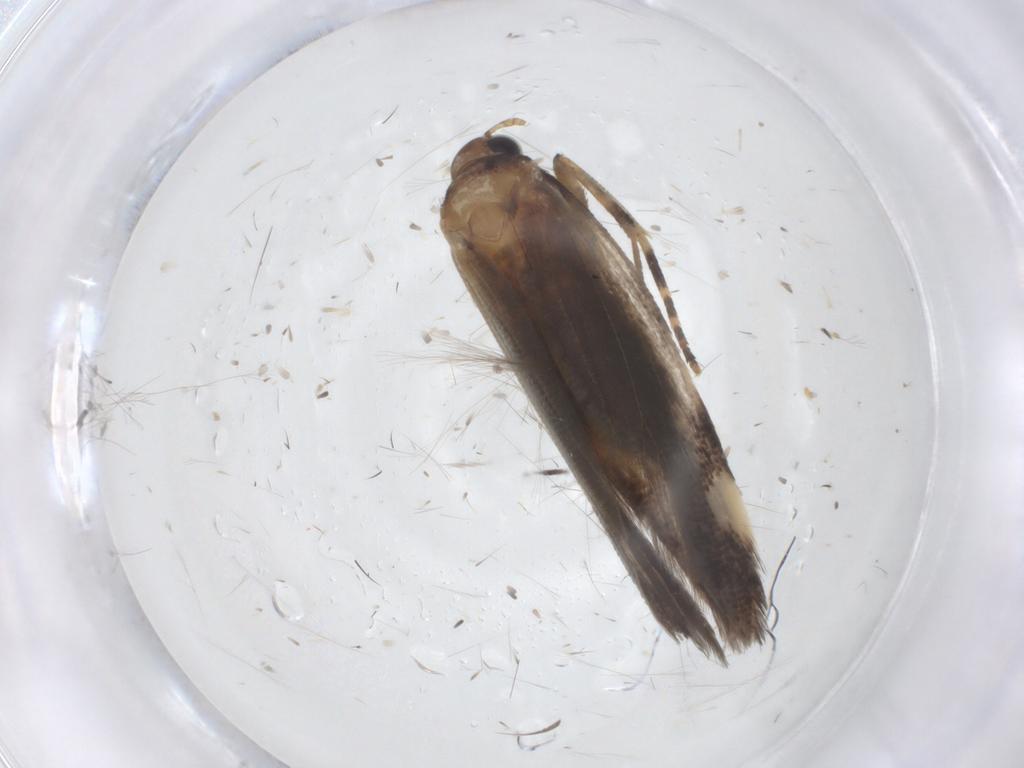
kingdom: Animalia
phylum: Arthropoda
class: Insecta
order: Lepidoptera
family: Gelechiidae
